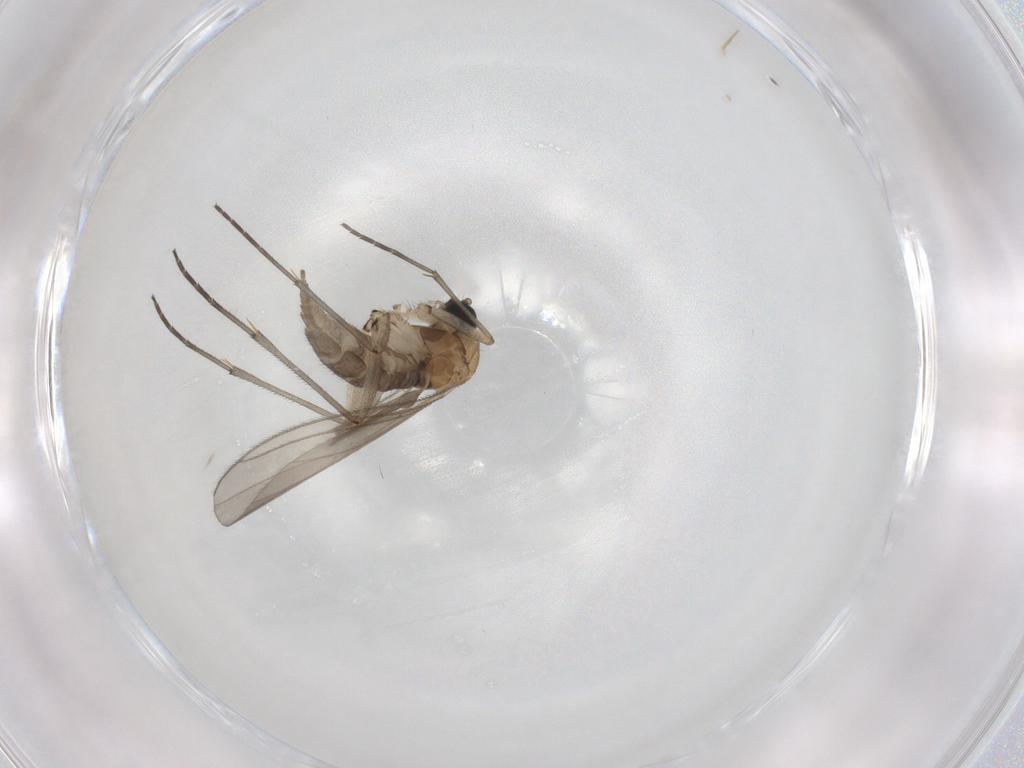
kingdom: Animalia
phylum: Arthropoda
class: Insecta
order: Diptera
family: Sciaridae
